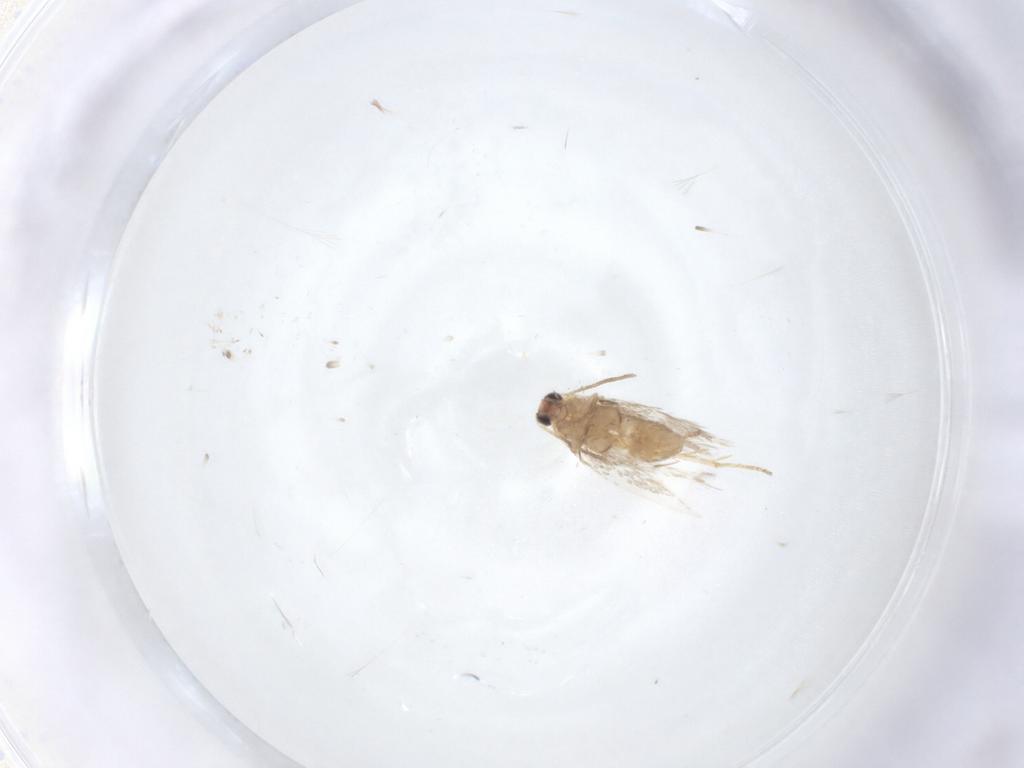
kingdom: Animalia
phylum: Arthropoda
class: Insecta
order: Lepidoptera
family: Nepticulidae
